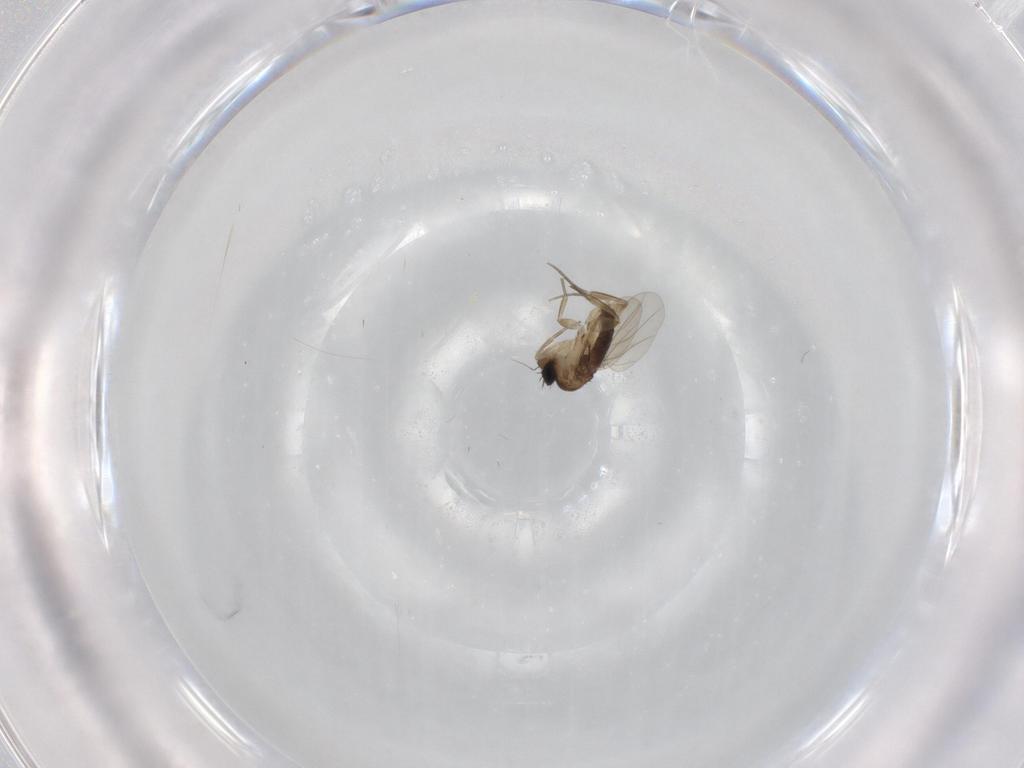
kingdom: Animalia
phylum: Arthropoda
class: Insecta
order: Diptera
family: Phoridae
